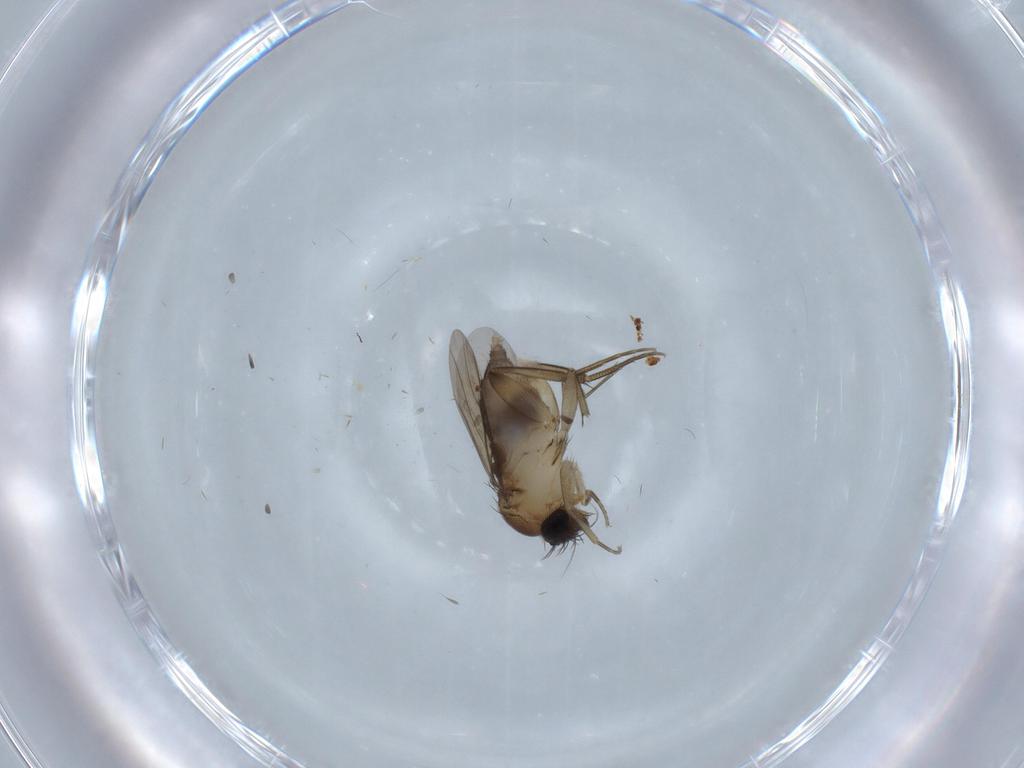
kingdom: Animalia
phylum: Arthropoda
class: Insecta
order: Diptera
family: Phoridae
